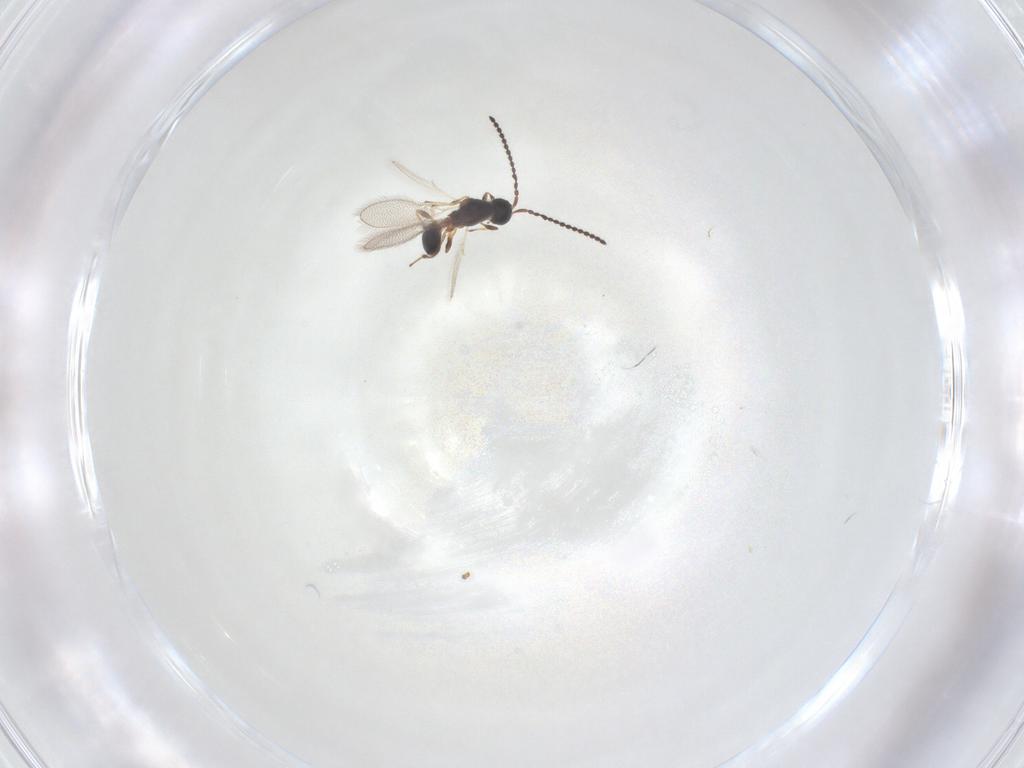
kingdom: Animalia
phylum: Arthropoda
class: Insecta
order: Hymenoptera
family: Diapriidae
